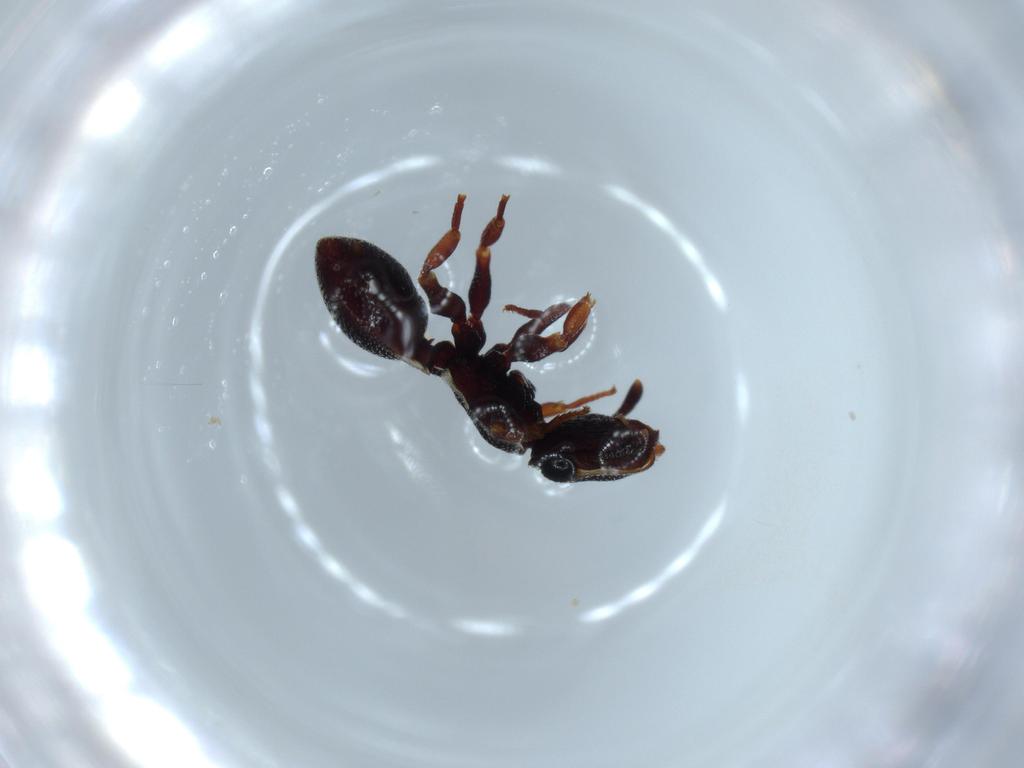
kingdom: Animalia
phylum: Arthropoda
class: Insecta
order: Hymenoptera
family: Formicidae
